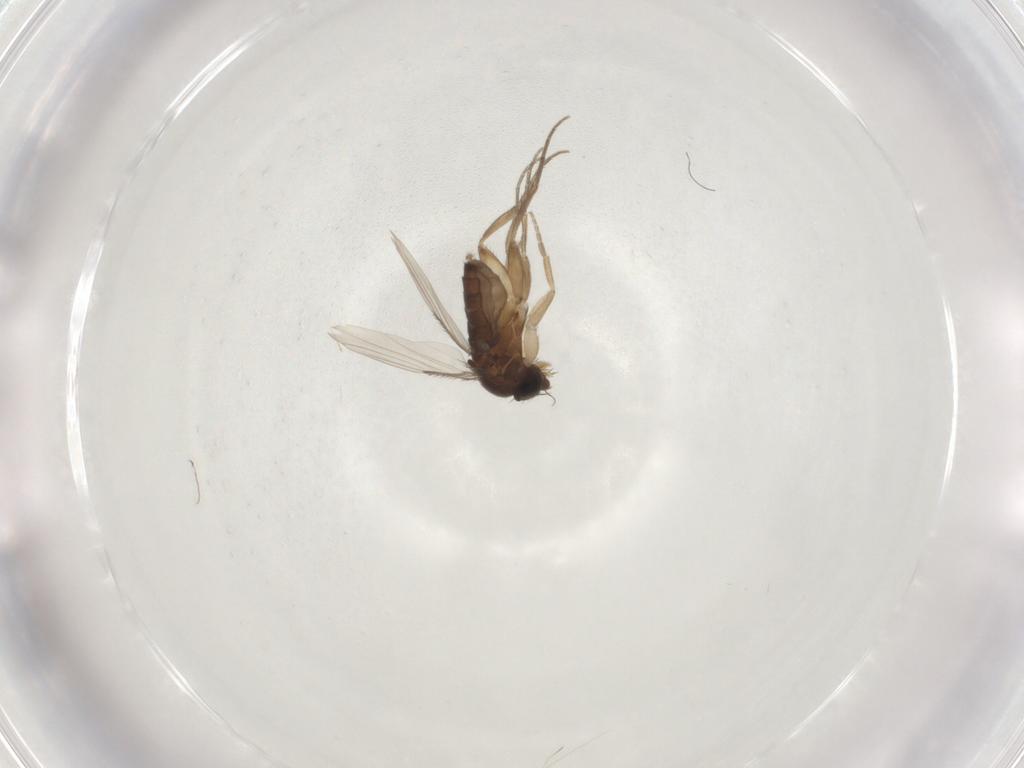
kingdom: Animalia
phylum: Arthropoda
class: Insecta
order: Diptera
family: Phoridae
